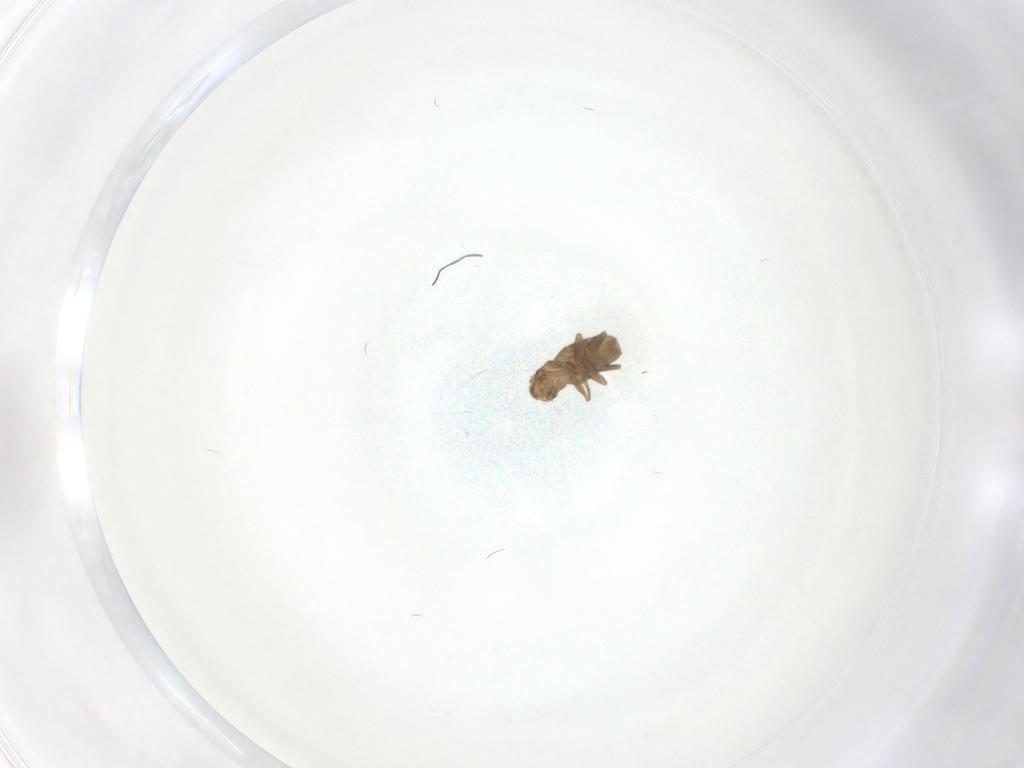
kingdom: Animalia
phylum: Arthropoda
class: Insecta
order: Diptera
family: Phoridae
